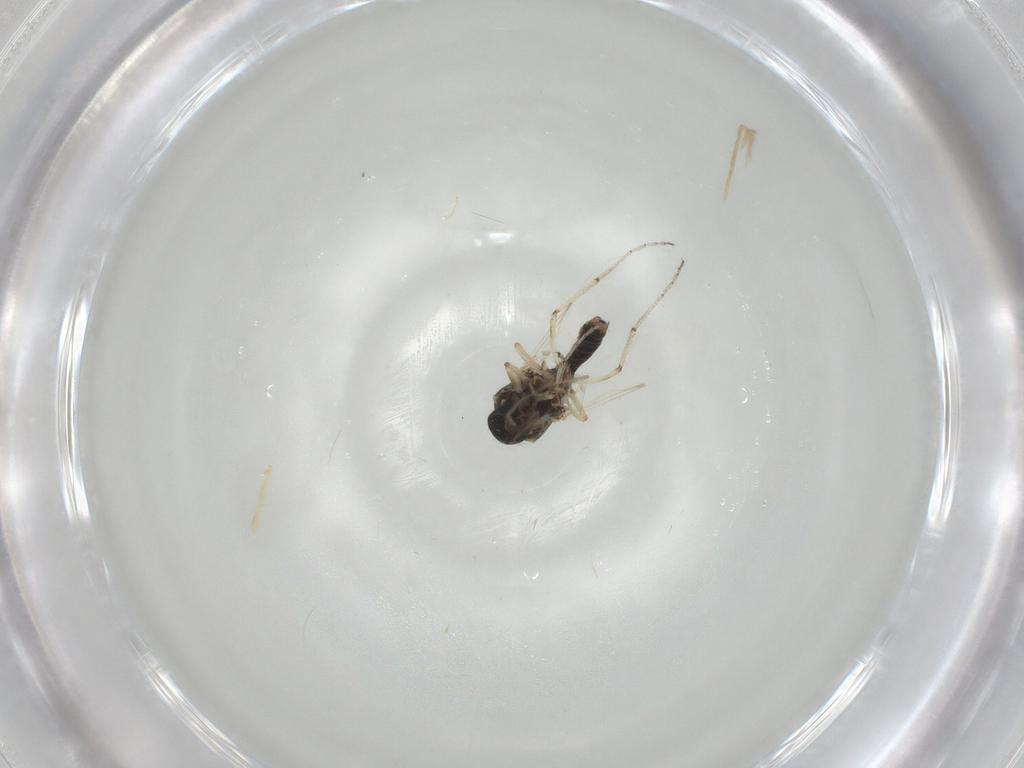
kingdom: Animalia
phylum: Arthropoda
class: Insecta
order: Diptera
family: Ceratopogonidae
